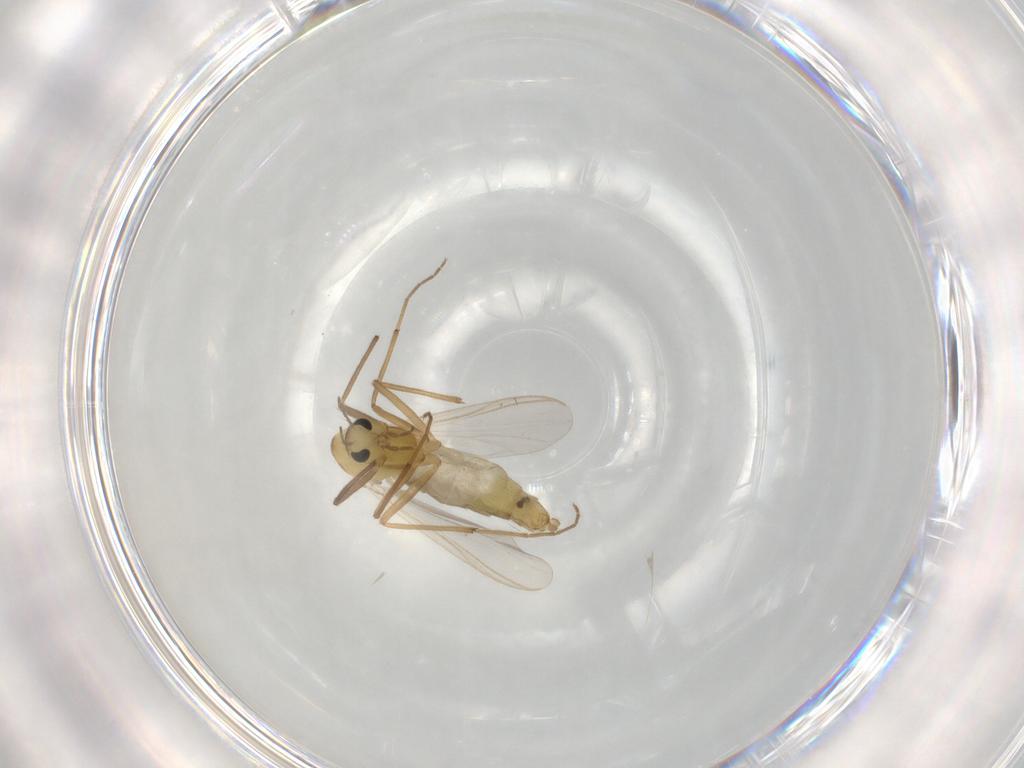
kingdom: Animalia
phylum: Arthropoda
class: Insecta
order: Diptera
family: Chironomidae
